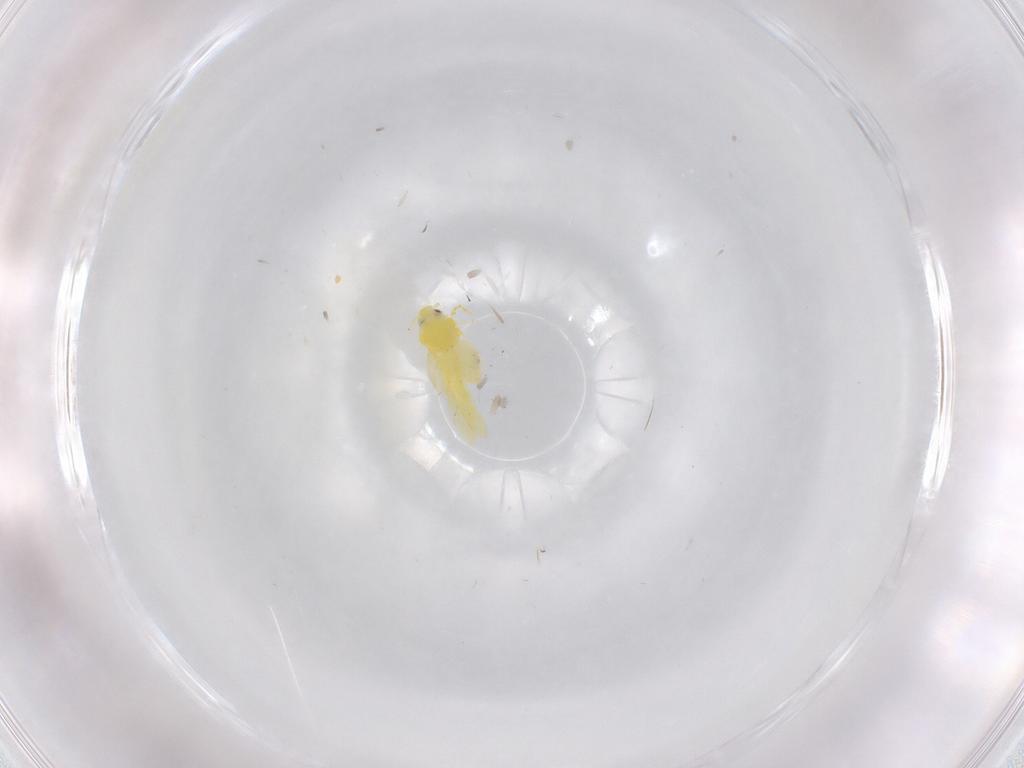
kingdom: Animalia
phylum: Arthropoda
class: Insecta
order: Hemiptera
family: Aleyrodidae
